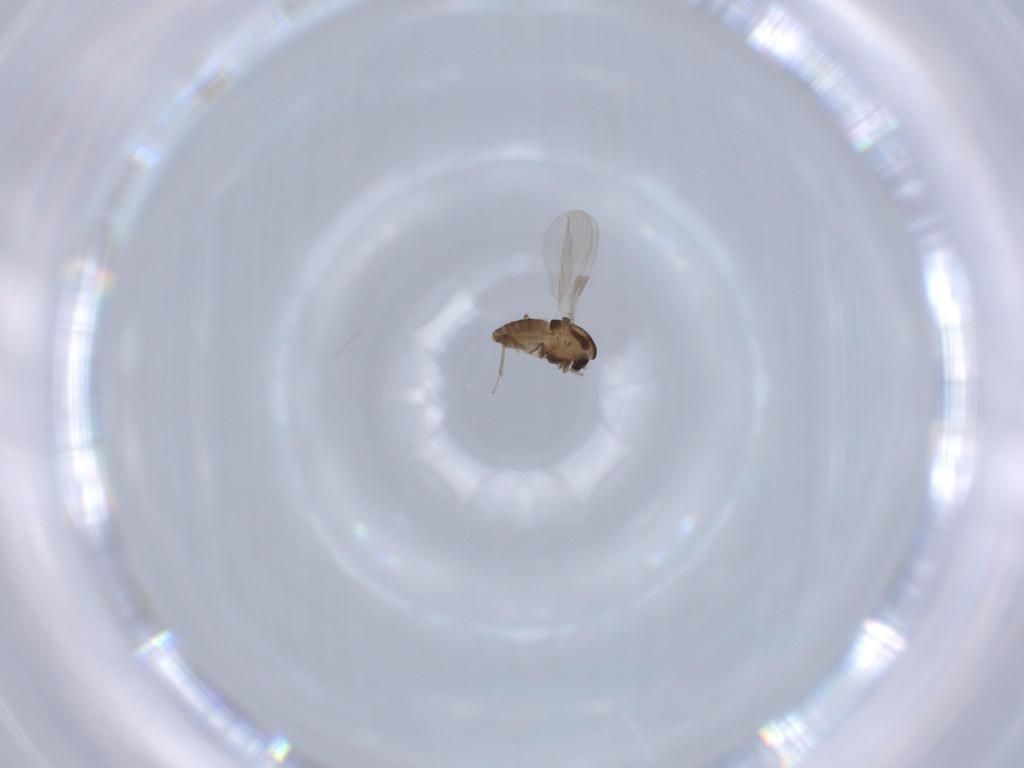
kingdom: Animalia
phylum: Arthropoda
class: Insecta
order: Diptera
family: Chironomidae
